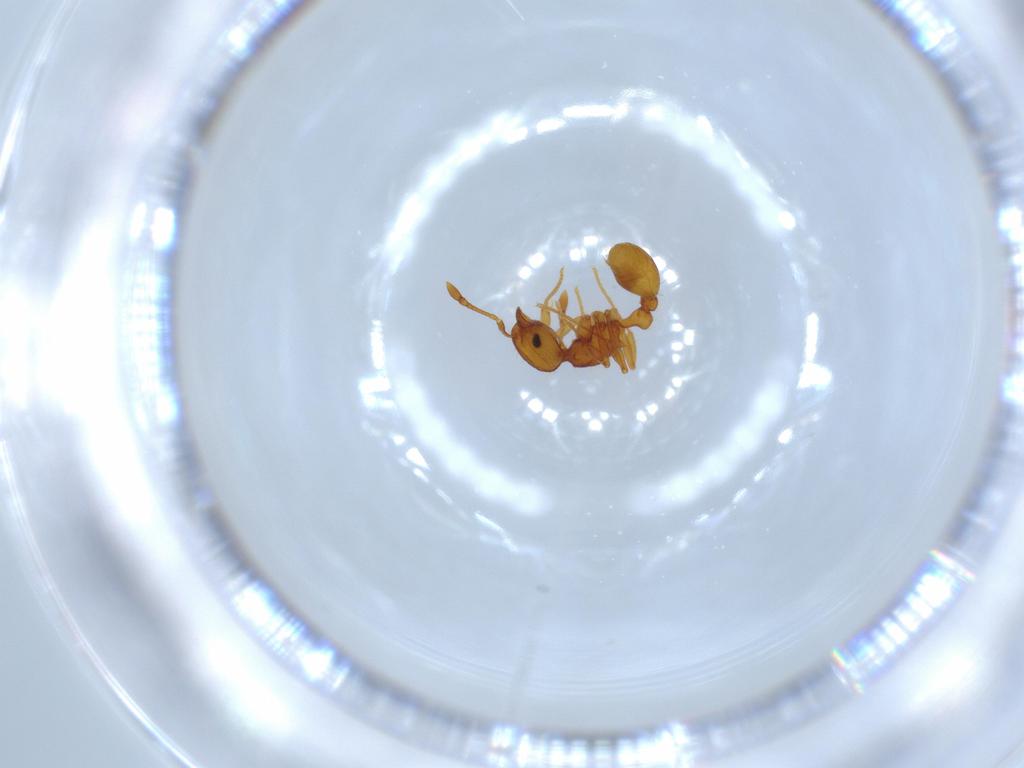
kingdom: Animalia
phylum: Arthropoda
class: Insecta
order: Hymenoptera
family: Formicidae
